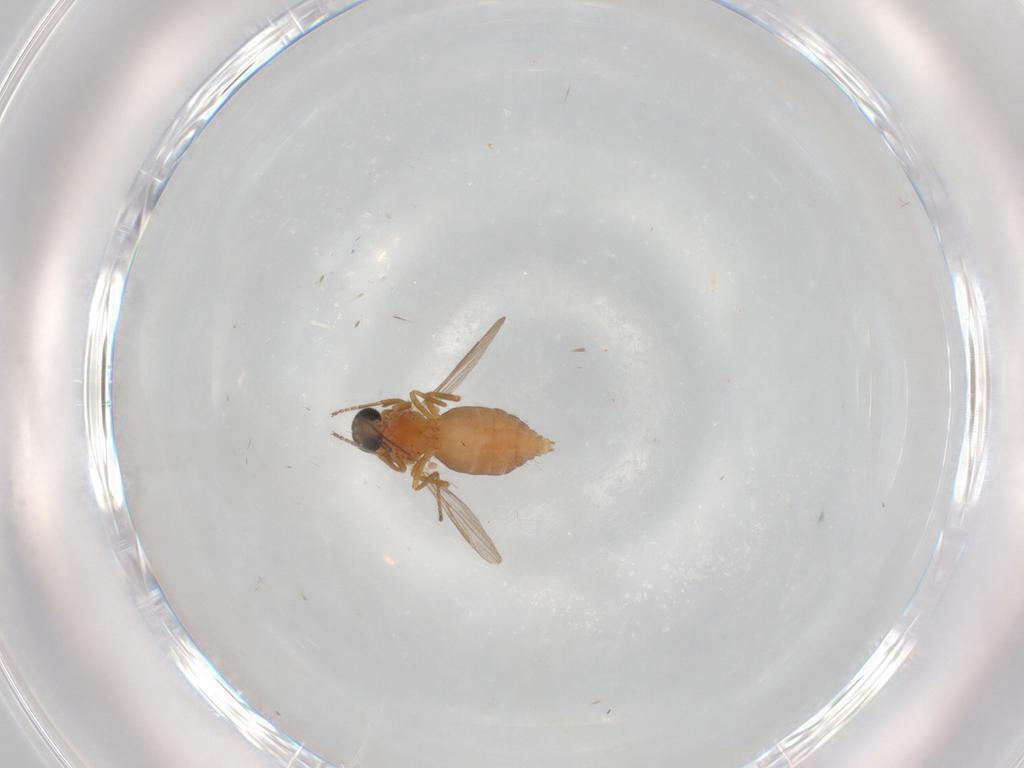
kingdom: Animalia
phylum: Arthropoda
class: Insecta
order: Diptera
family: Ceratopogonidae
